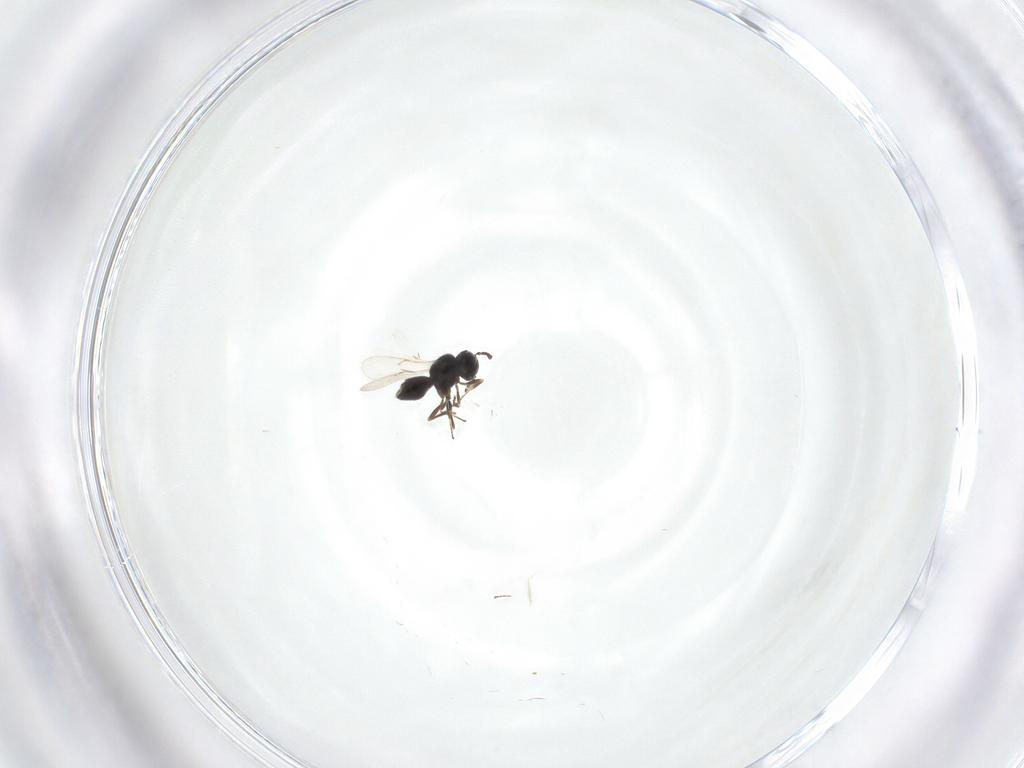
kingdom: Animalia
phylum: Arthropoda
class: Insecta
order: Hymenoptera
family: Scelionidae
